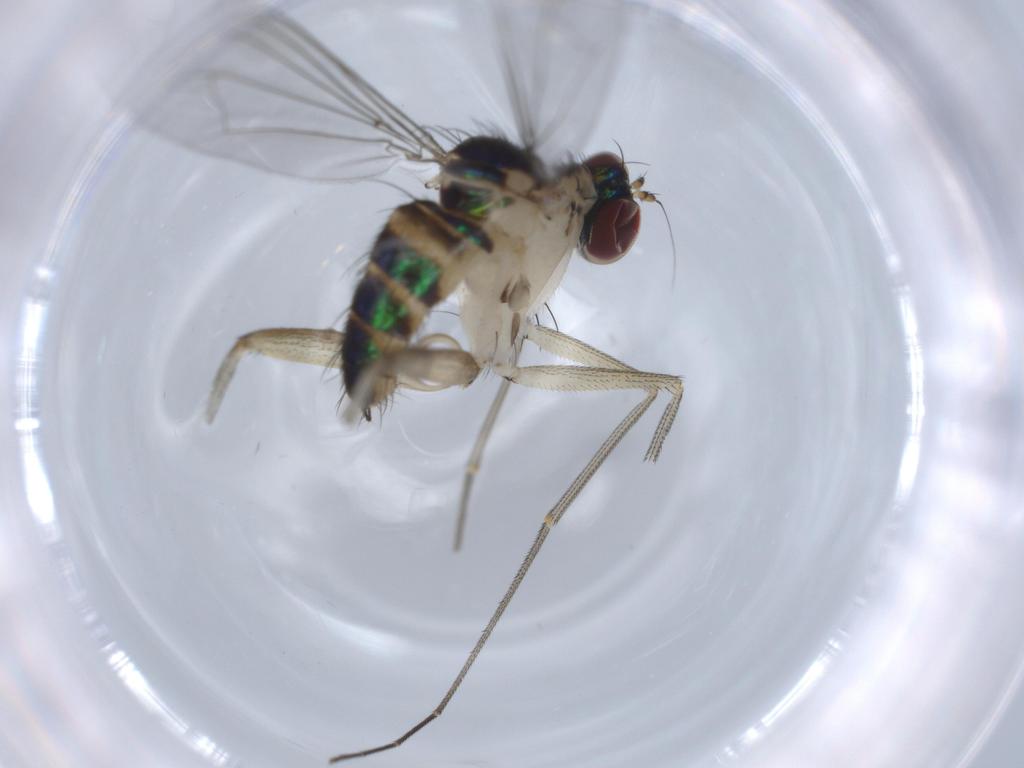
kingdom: Animalia
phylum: Arthropoda
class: Insecta
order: Diptera
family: Dolichopodidae
